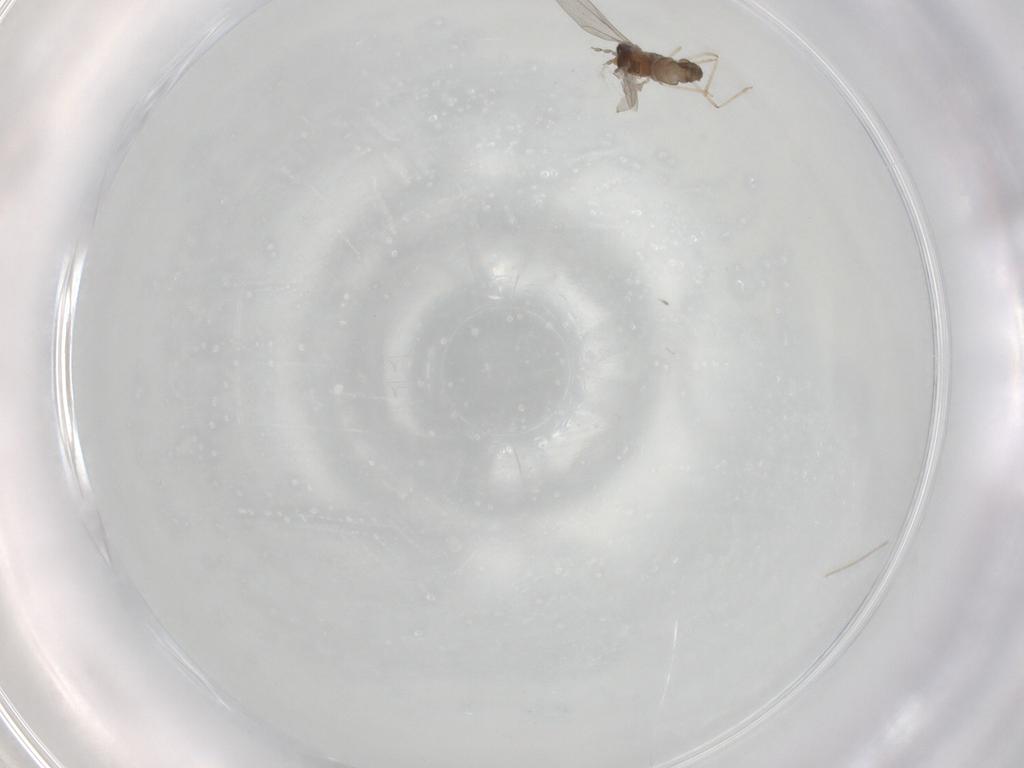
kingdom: Animalia
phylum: Arthropoda
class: Insecta
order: Diptera
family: Cecidomyiidae
